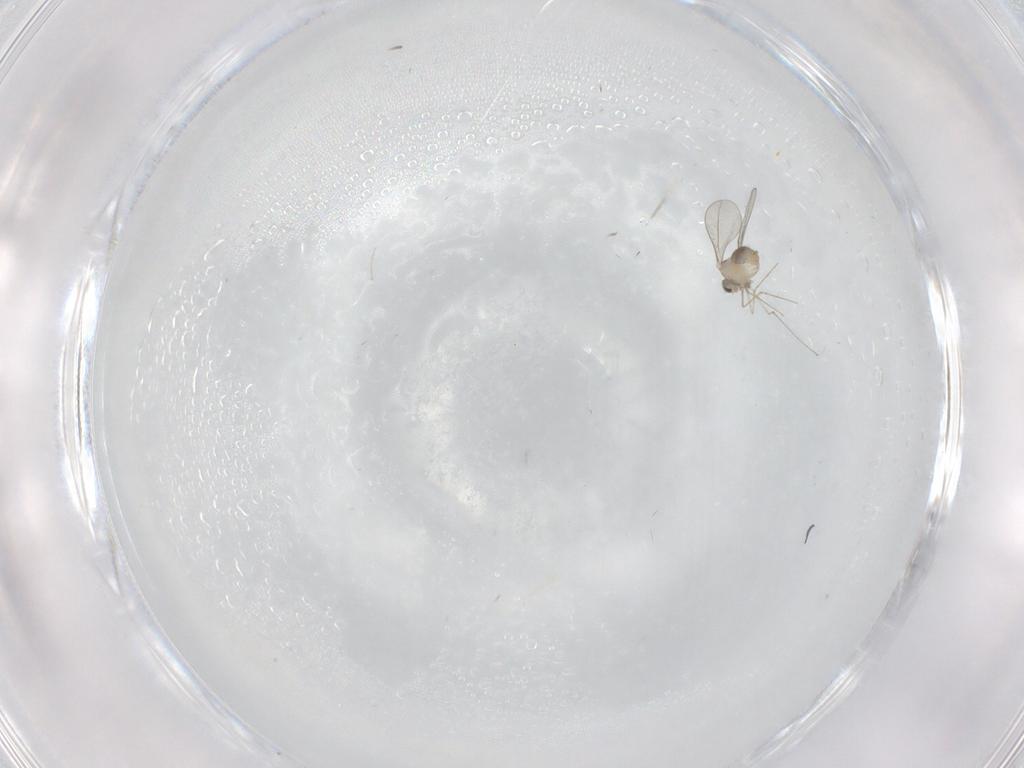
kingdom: Animalia
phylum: Arthropoda
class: Insecta
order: Diptera
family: Cecidomyiidae
